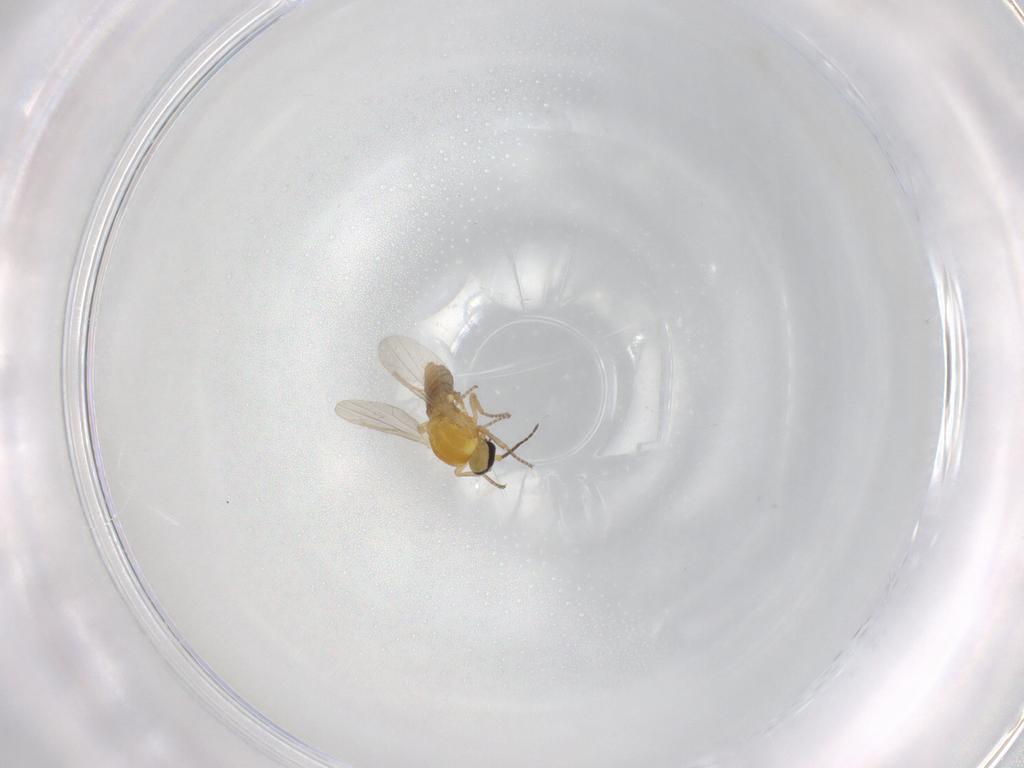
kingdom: Animalia
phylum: Arthropoda
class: Insecta
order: Diptera
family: Ceratopogonidae
